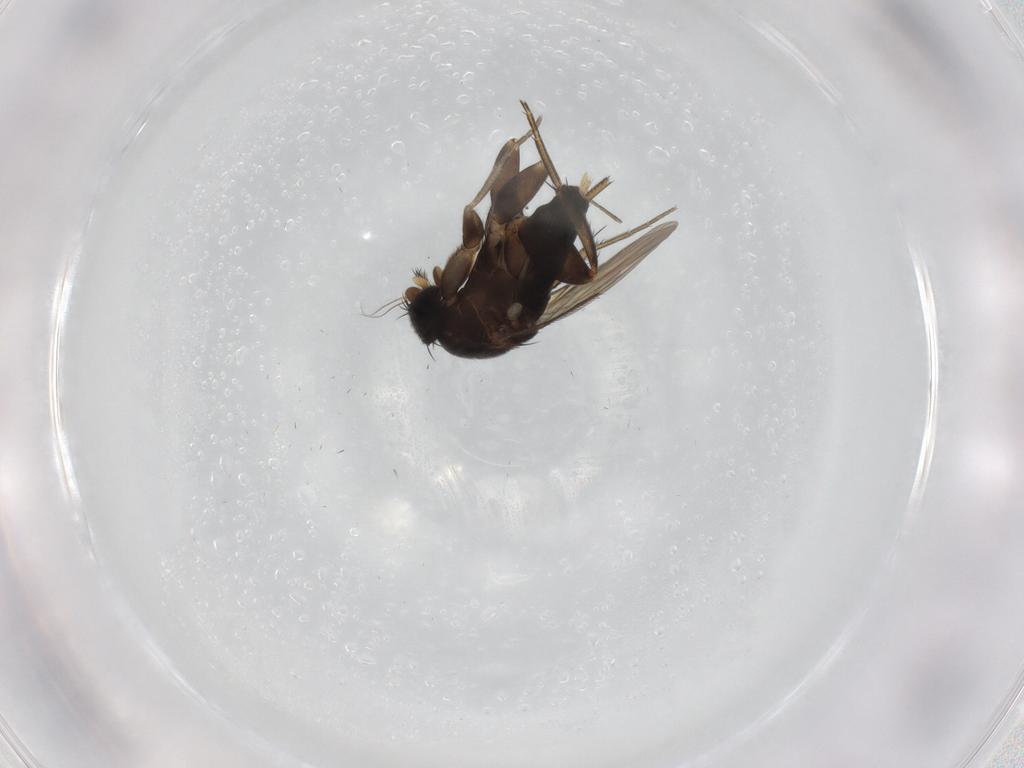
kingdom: Animalia
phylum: Arthropoda
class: Insecta
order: Diptera
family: Phoridae
